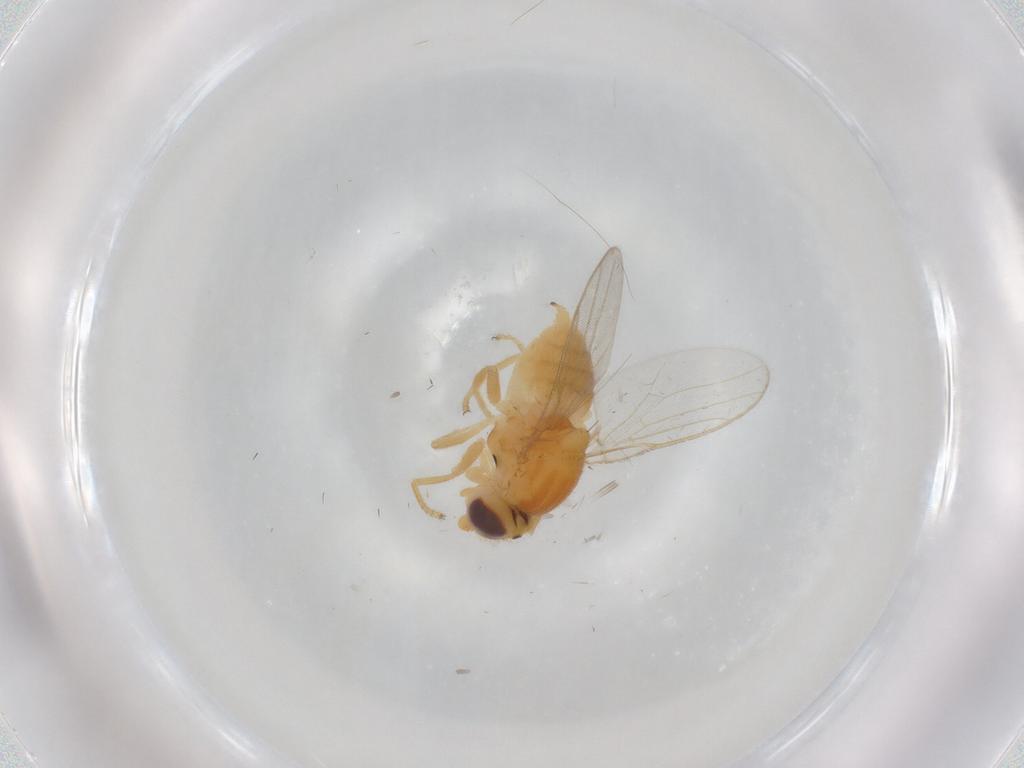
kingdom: Animalia
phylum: Arthropoda
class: Insecta
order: Diptera
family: Chloropidae
